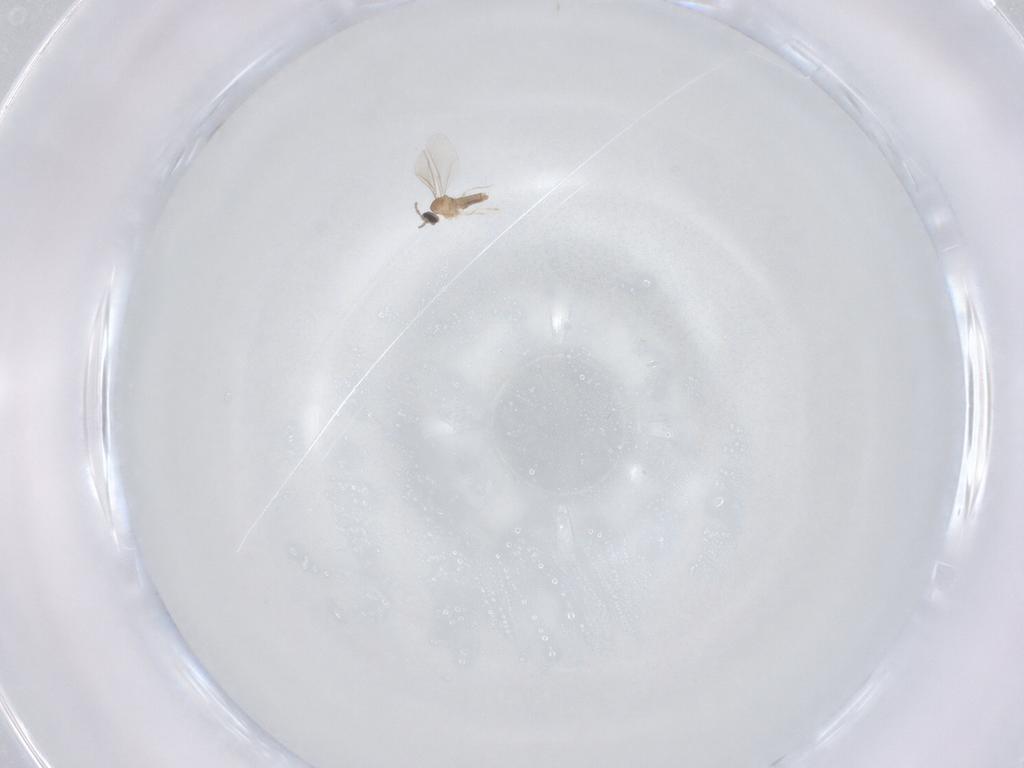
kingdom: Animalia
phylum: Arthropoda
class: Insecta
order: Diptera
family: Cecidomyiidae
